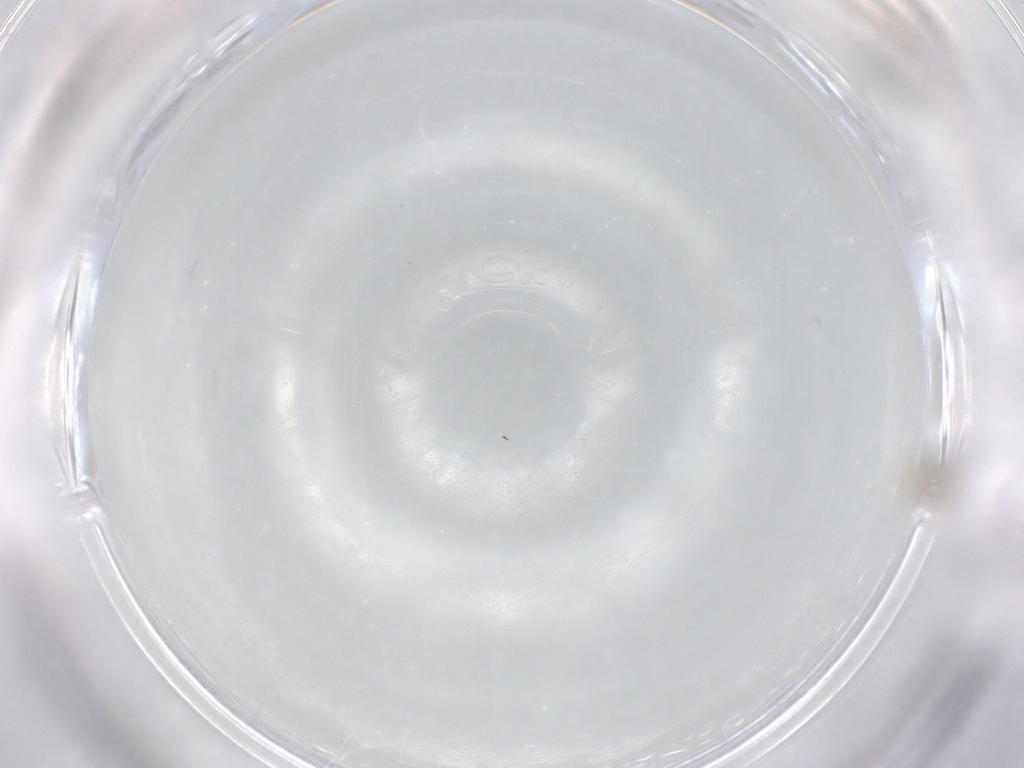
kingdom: Animalia
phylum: Arthropoda
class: Insecta
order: Diptera
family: Cecidomyiidae
